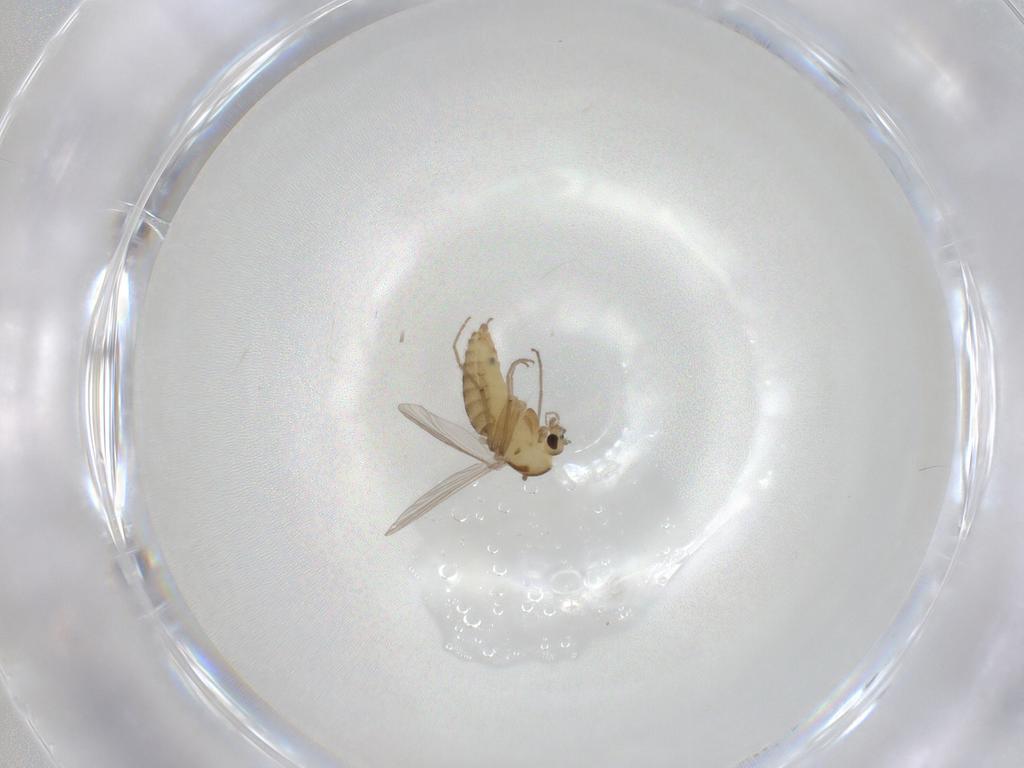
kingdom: Animalia
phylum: Arthropoda
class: Insecta
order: Diptera
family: Chironomidae
